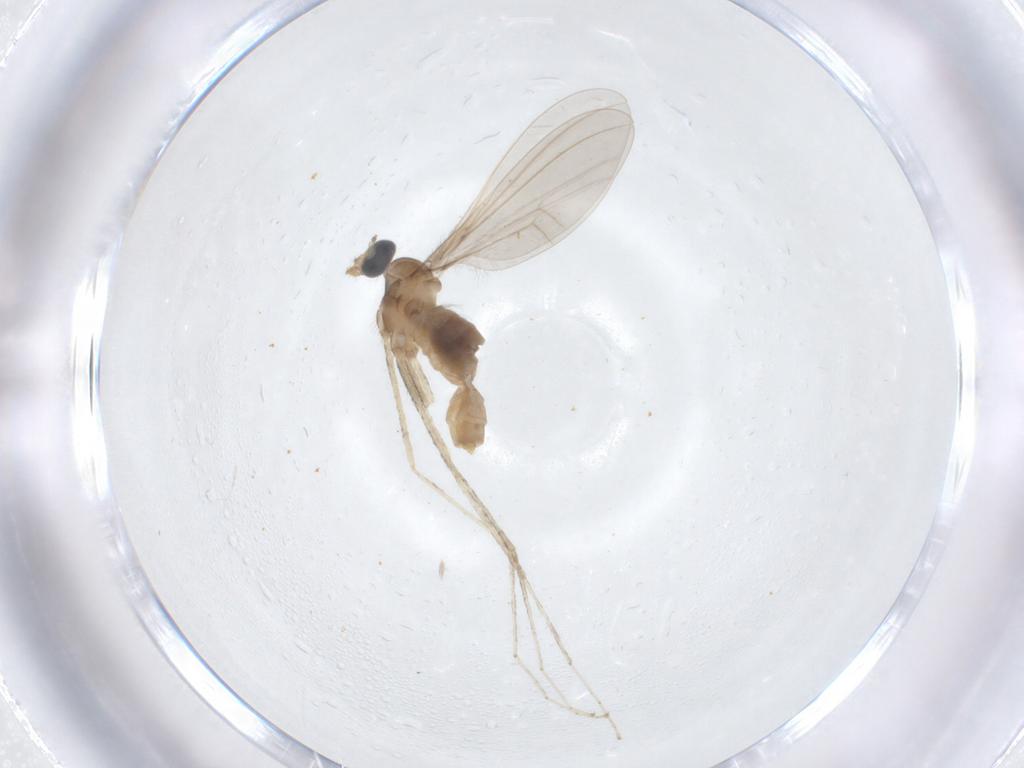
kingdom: Animalia
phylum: Arthropoda
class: Insecta
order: Diptera
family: Cecidomyiidae
